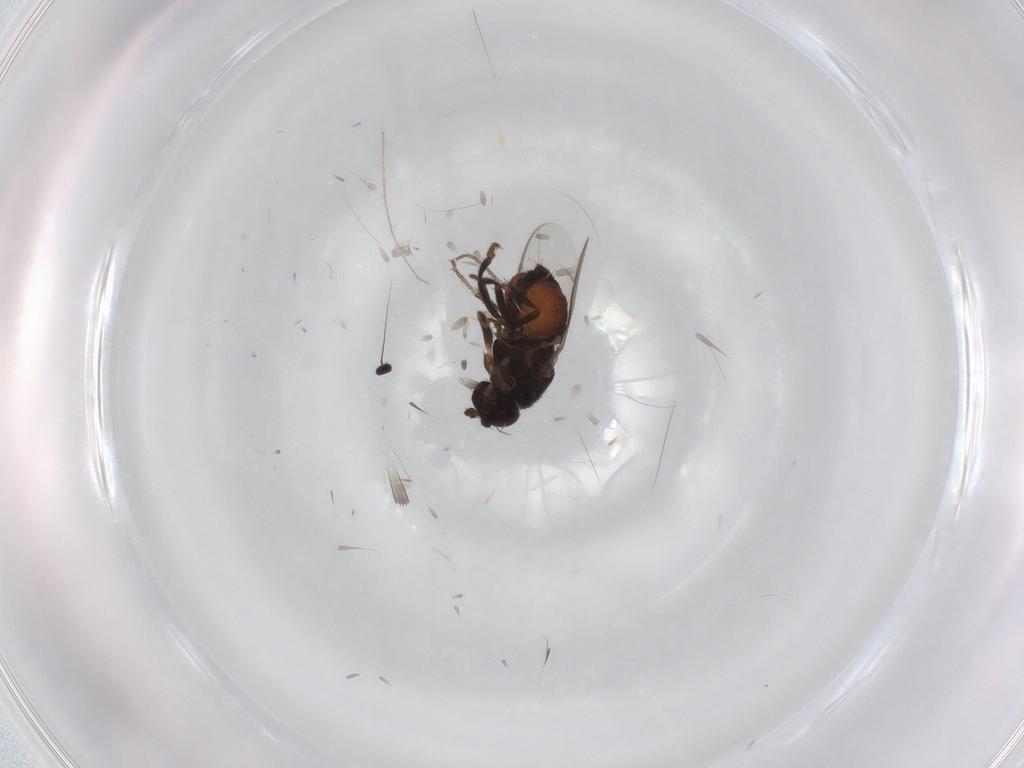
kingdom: Animalia
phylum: Arthropoda
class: Insecta
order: Diptera
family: Sphaeroceridae
